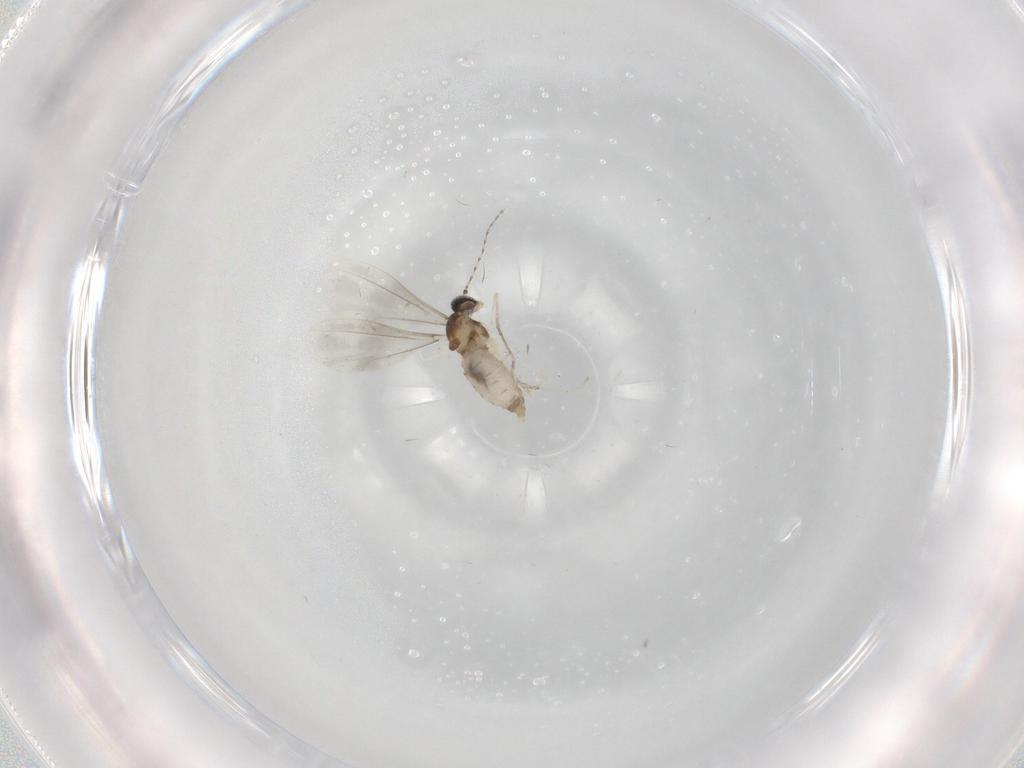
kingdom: Animalia
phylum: Arthropoda
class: Insecta
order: Diptera
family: Cecidomyiidae
